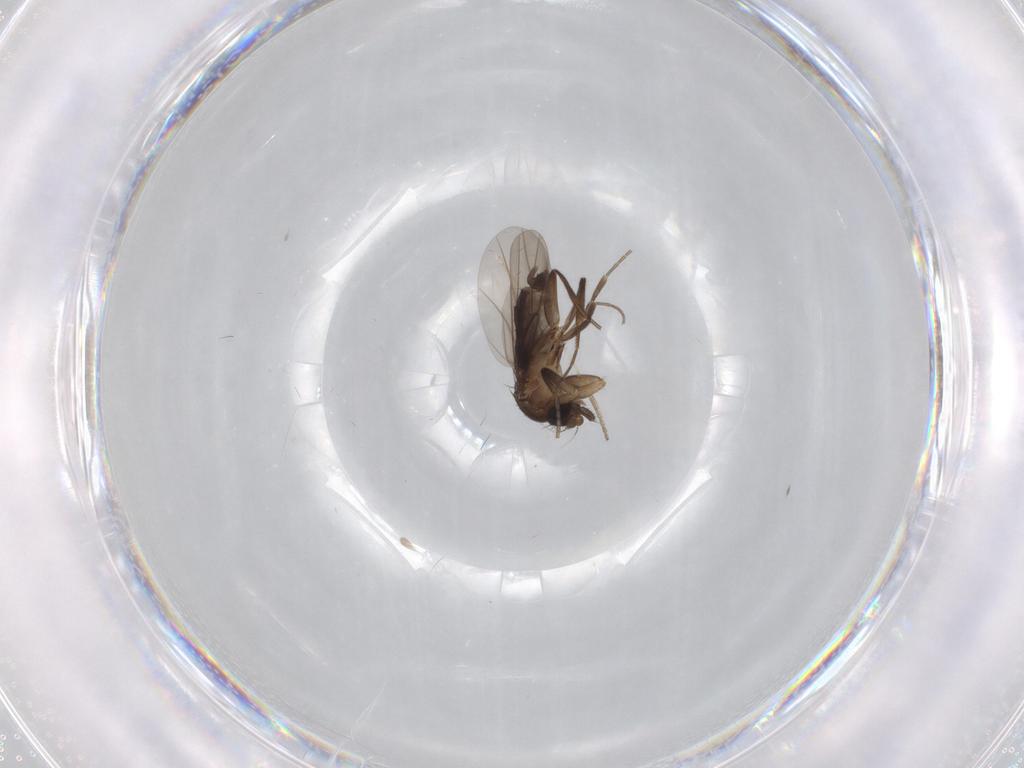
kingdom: Animalia
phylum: Arthropoda
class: Insecta
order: Diptera
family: Phoridae
